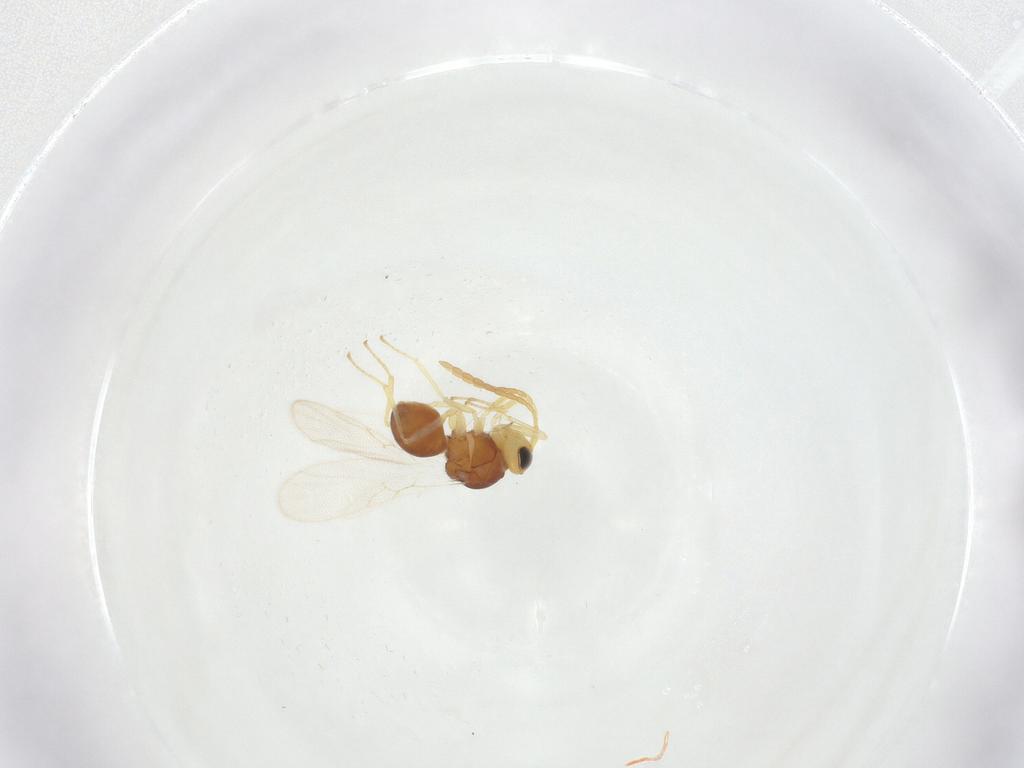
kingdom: Animalia
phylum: Arthropoda
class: Insecta
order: Hymenoptera
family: Figitidae
